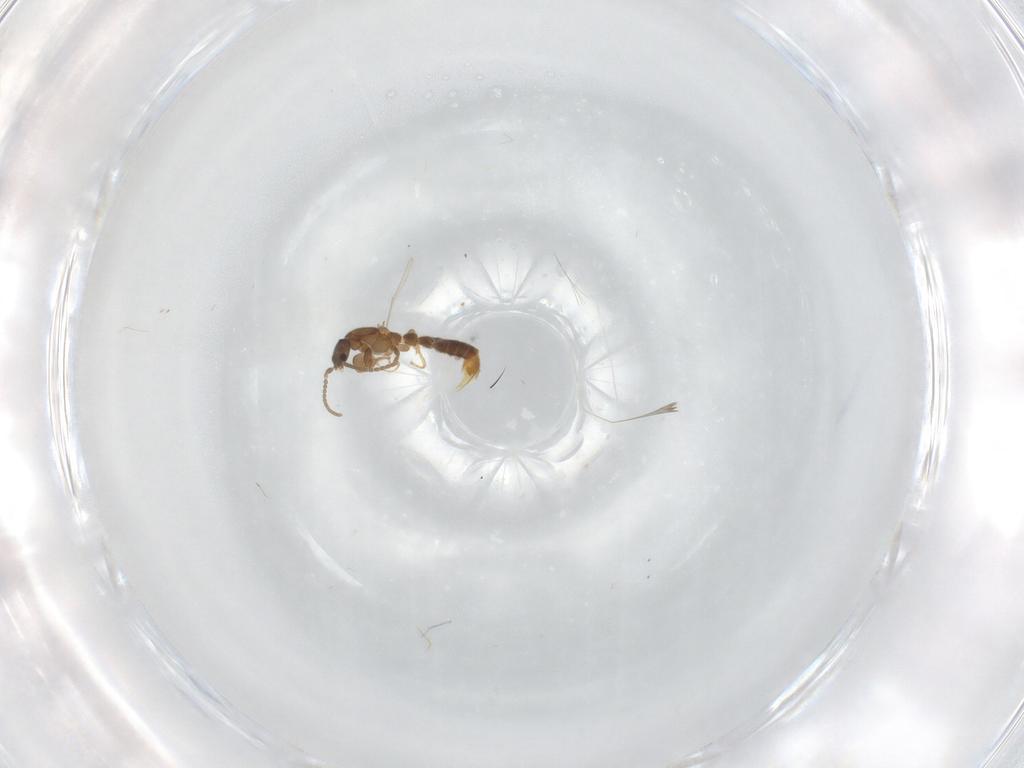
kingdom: Animalia
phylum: Arthropoda
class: Insecta
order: Hymenoptera
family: Formicidae
